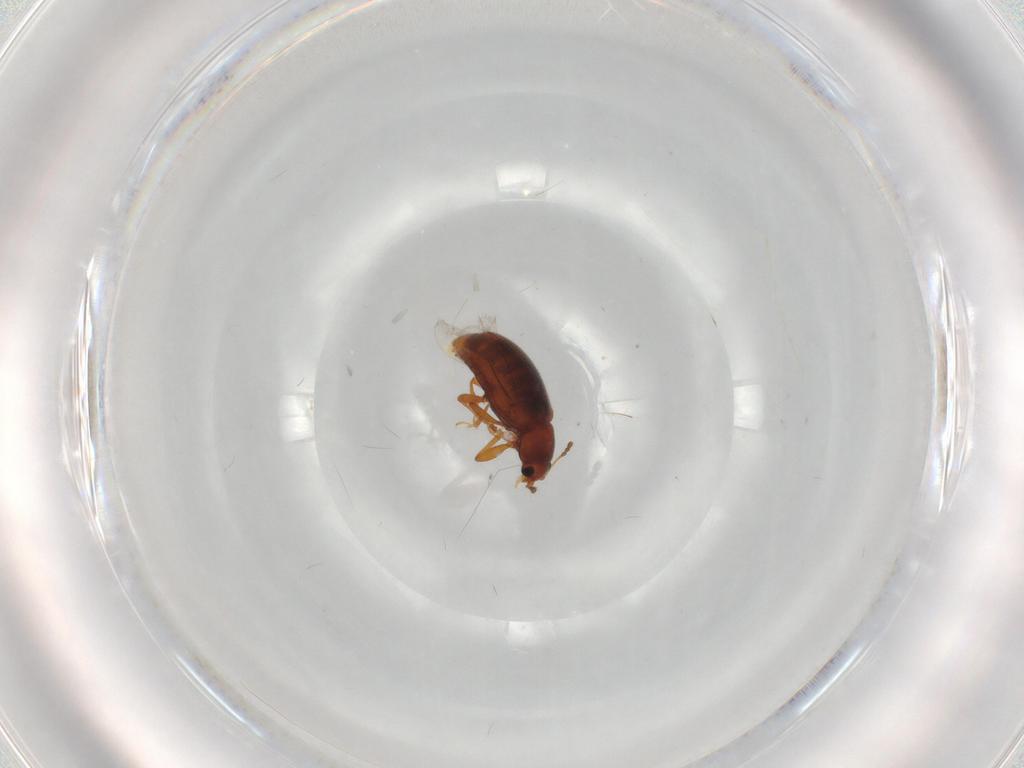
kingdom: Animalia
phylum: Arthropoda
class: Insecta
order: Coleoptera
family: Latridiidae
